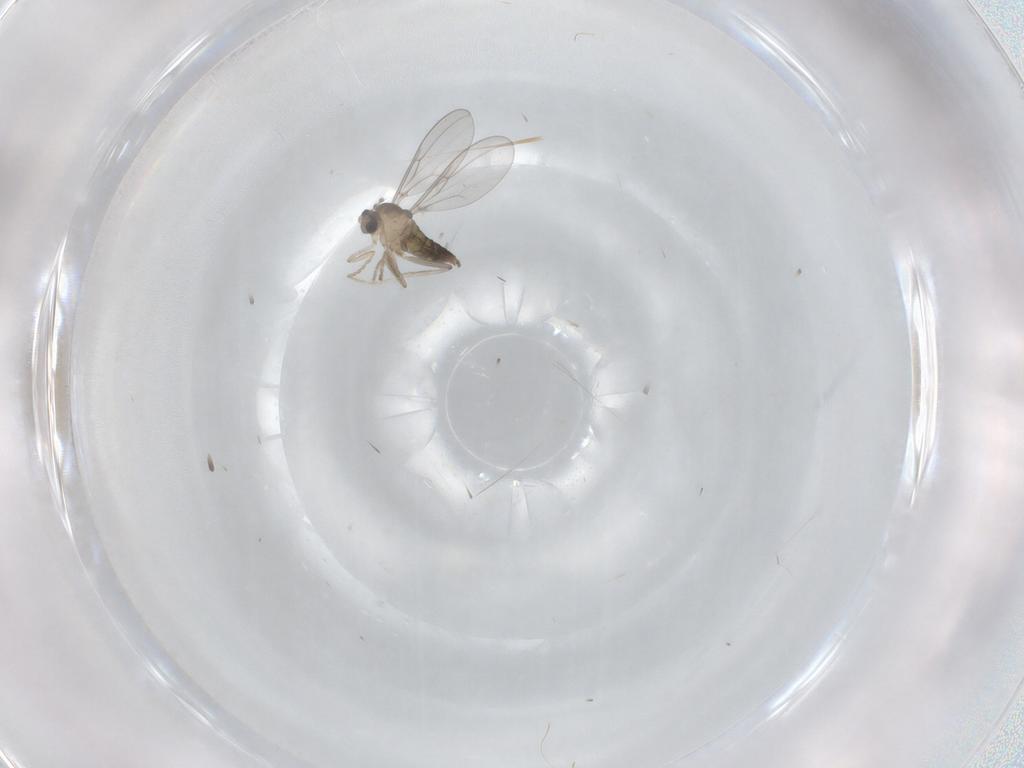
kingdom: Animalia
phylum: Arthropoda
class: Insecta
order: Diptera
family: Cecidomyiidae
